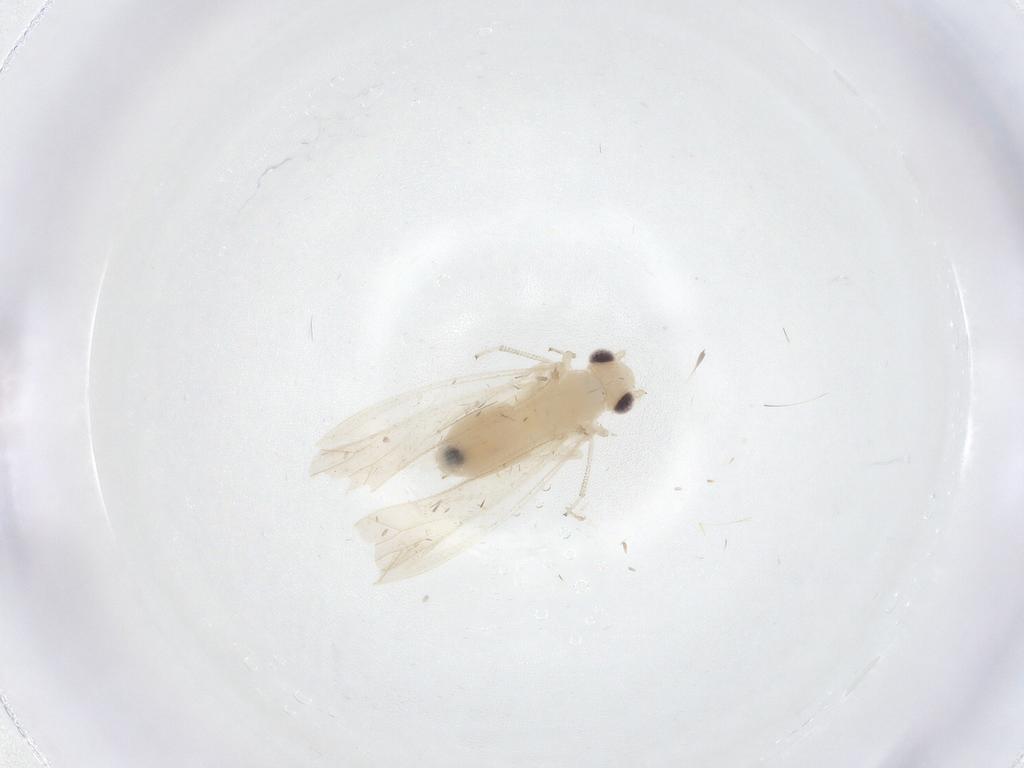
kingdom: Animalia
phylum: Arthropoda
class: Insecta
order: Psocodea
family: Caeciliusidae
